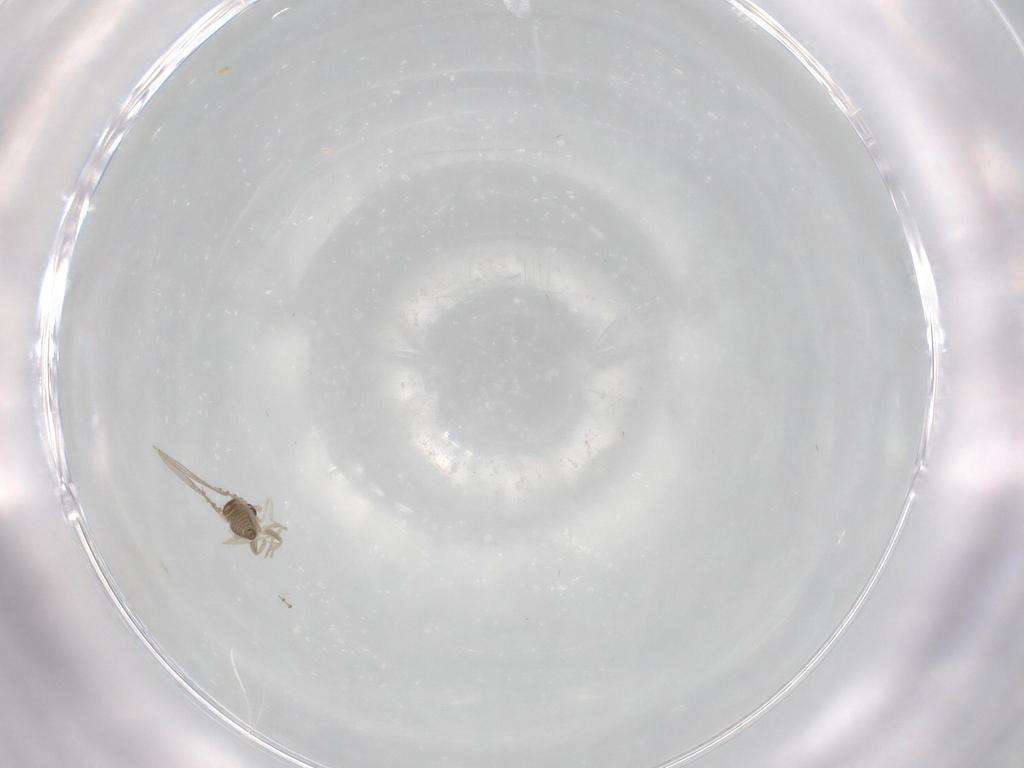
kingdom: Animalia
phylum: Arthropoda
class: Insecta
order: Diptera
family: Cecidomyiidae
